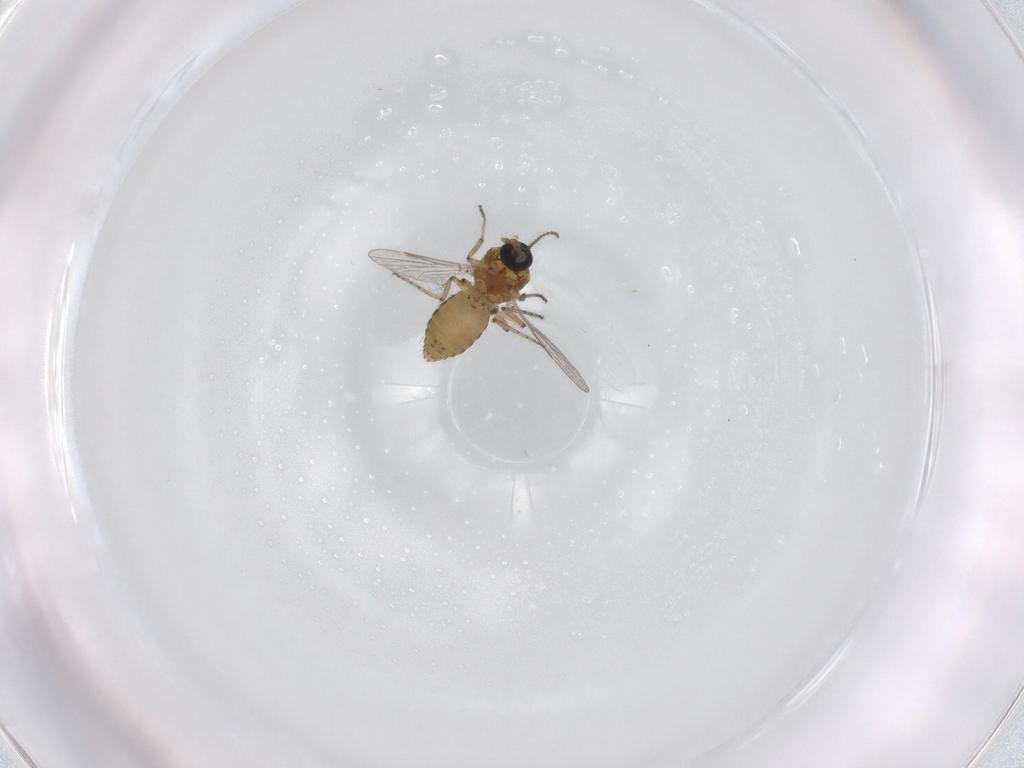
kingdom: Animalia
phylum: Arthropoda
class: Insecta
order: Diptera
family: Ceratopogonidae
